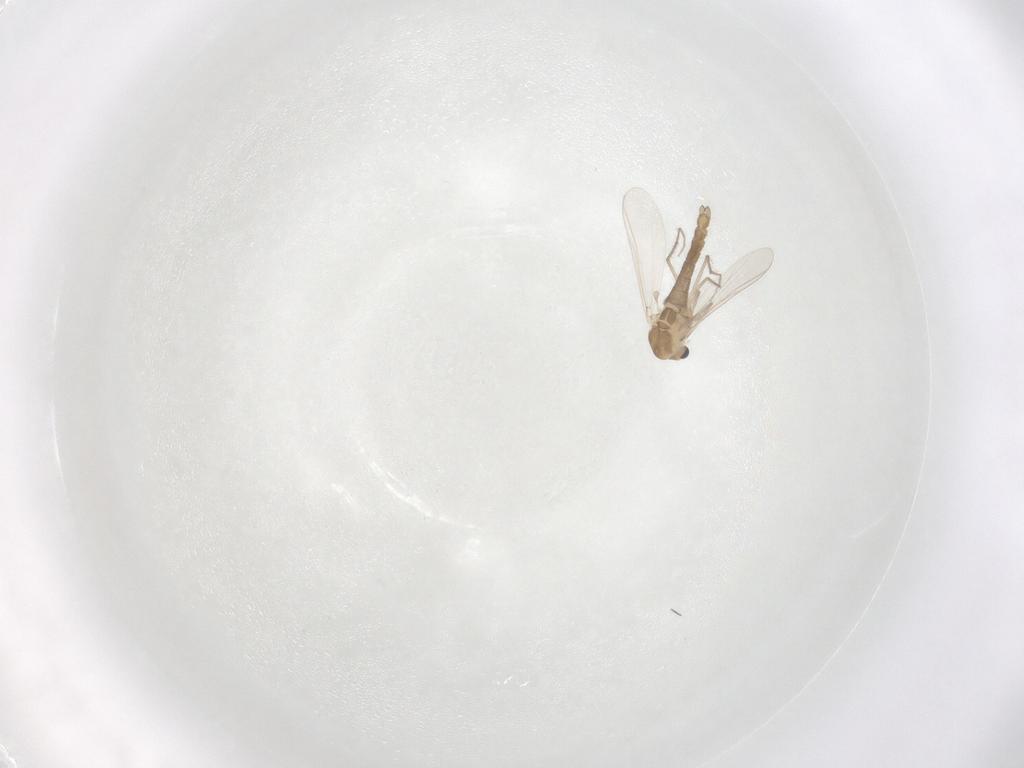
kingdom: Animalia
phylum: Arthropoda
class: Insecta
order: Diptera
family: Chironomidae
